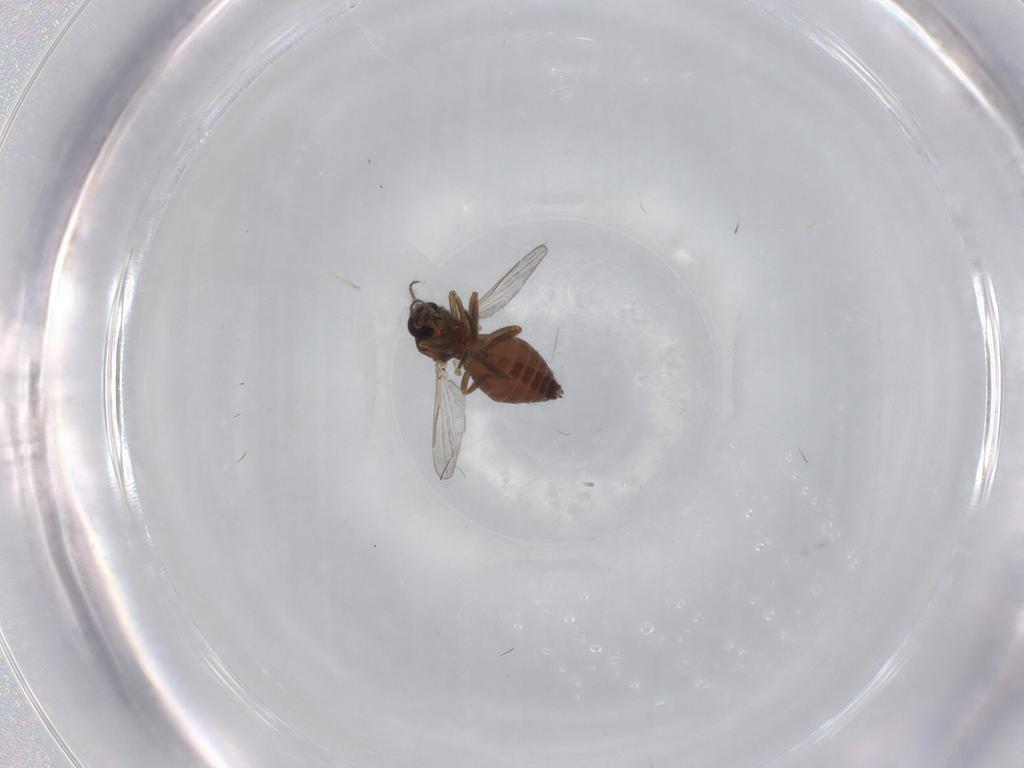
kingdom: Animalia
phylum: Arthropoda
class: Insecta
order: Diptera
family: Ceratopogonidae
